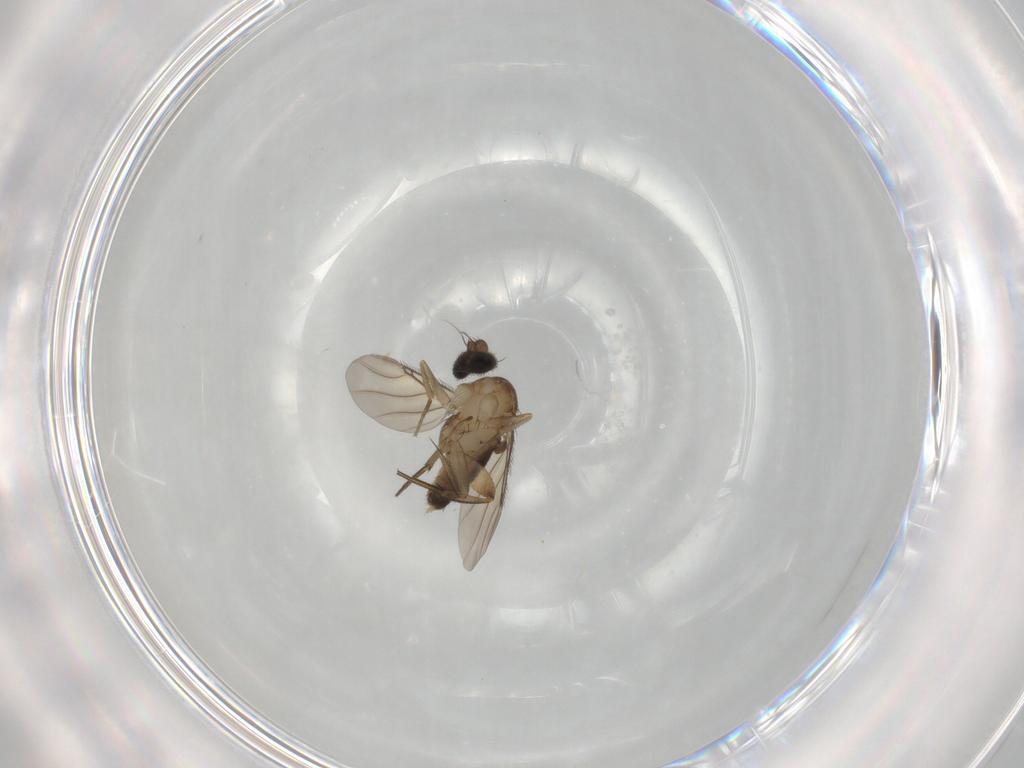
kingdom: Animalia
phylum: Arthropoda
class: Insecta
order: Diptera
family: Phoridae
